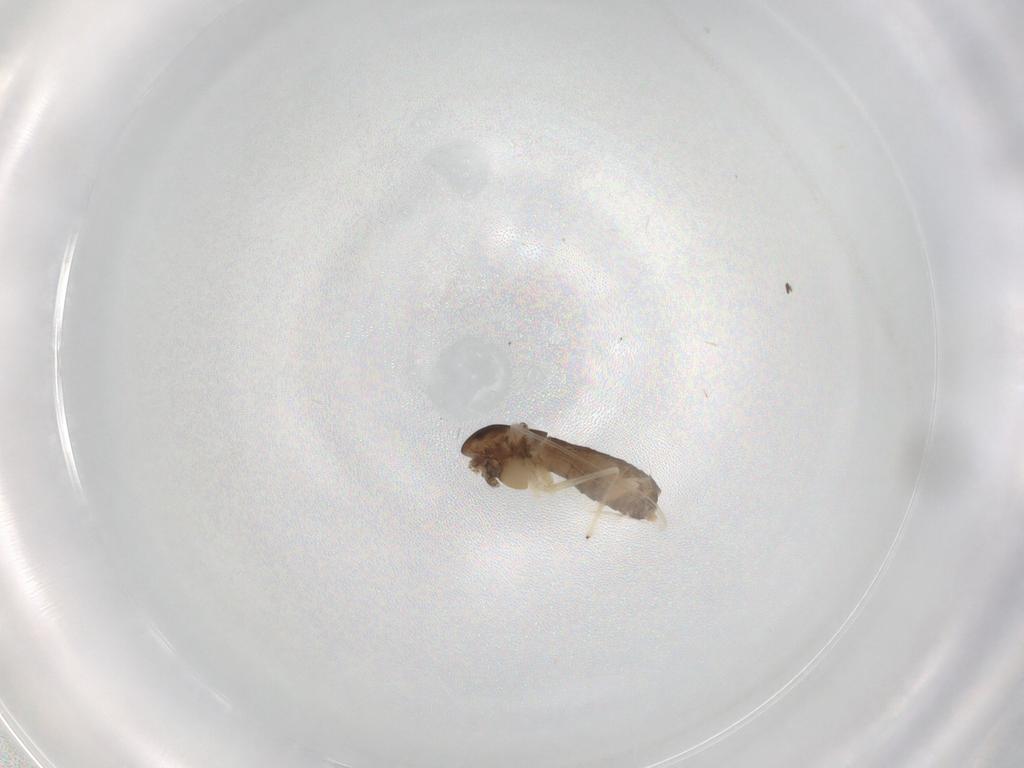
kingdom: Animalia
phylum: Arthropoda
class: Insecta
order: Diptera
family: Chironomidae
